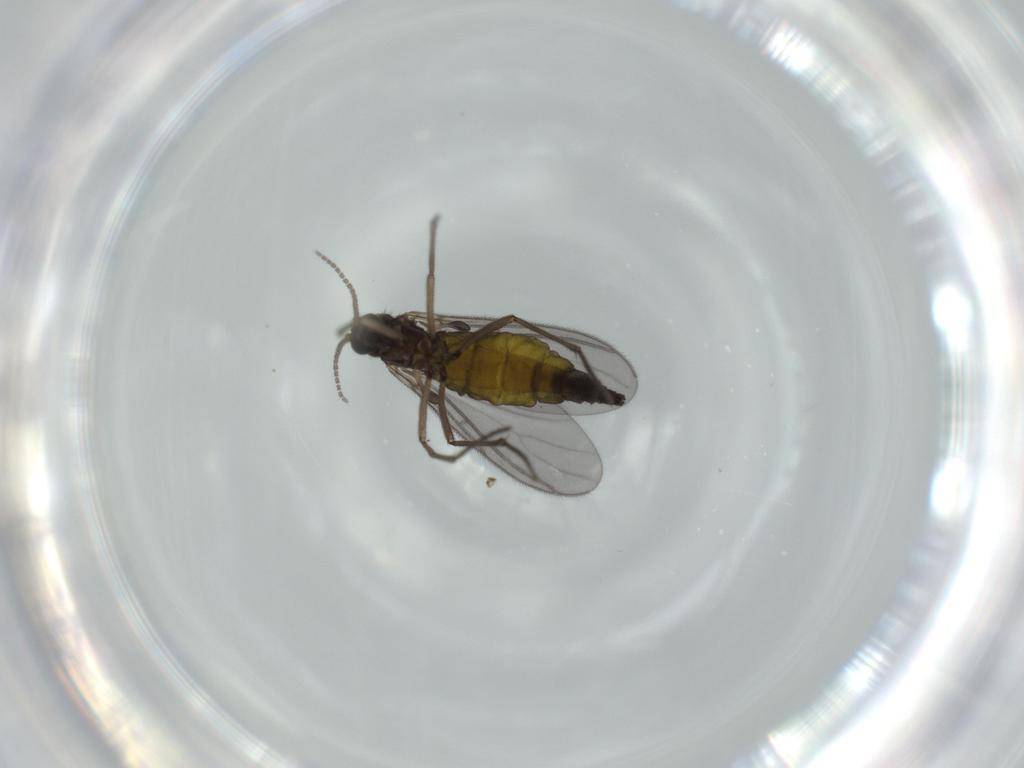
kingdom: Animalia
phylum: Arthropoda
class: Insecta
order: Diptera
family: Sciaridae
